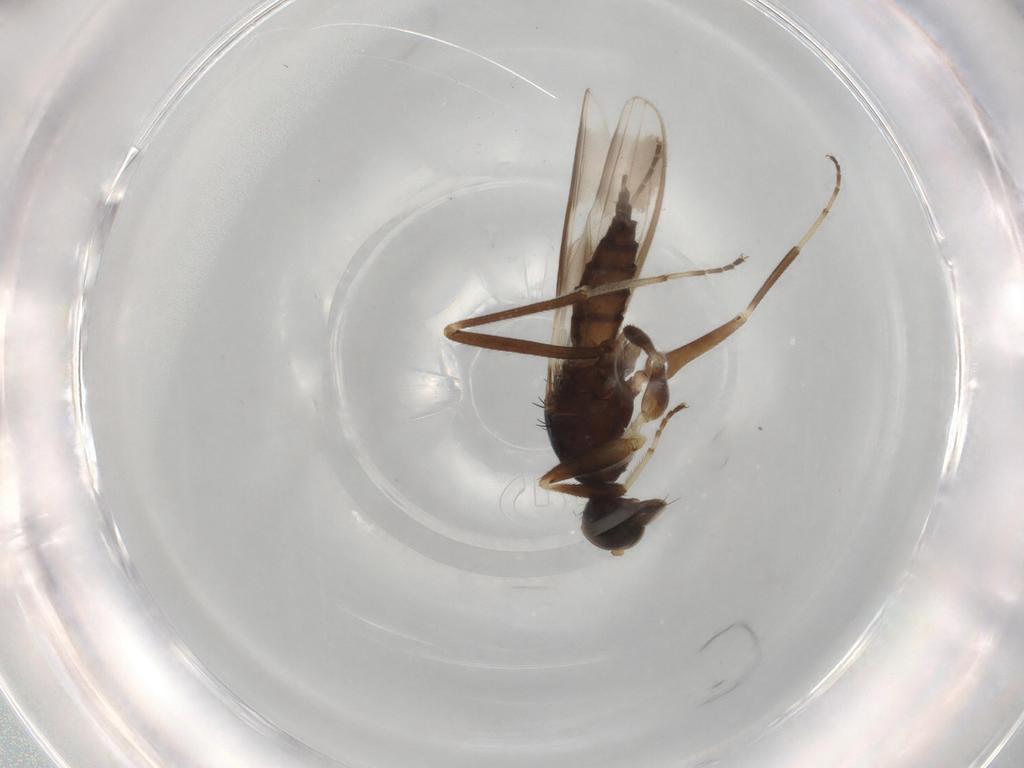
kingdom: Animalia
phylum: Arthropoda
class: Insecta
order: Diptera
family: Hybotidae
